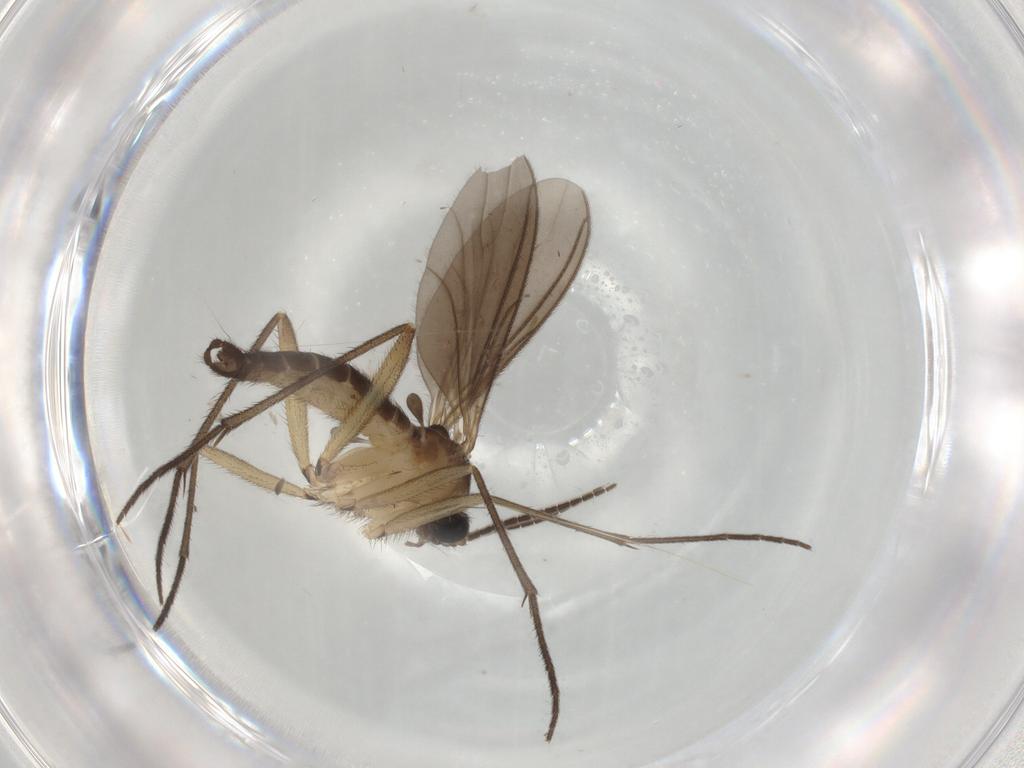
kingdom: Animalia
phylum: Arthropoda
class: Insecta
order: Diptera
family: Sciaridae
